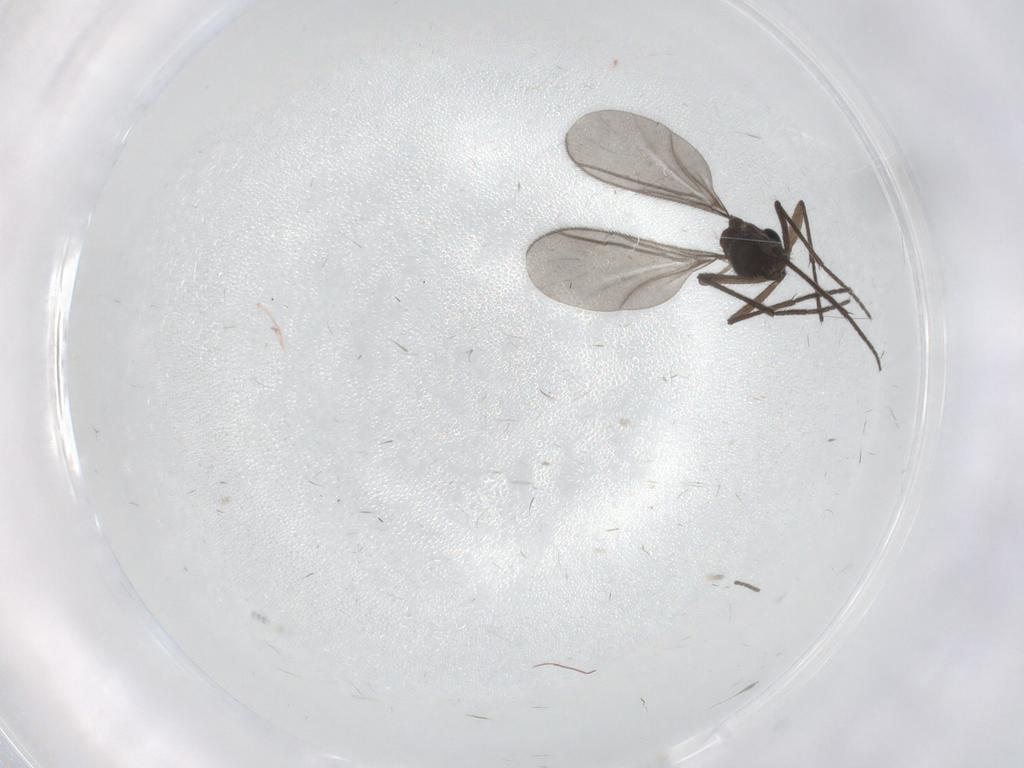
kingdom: Animalia
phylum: Arthropoda
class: Insecta
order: Diptera
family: Sciaridae
